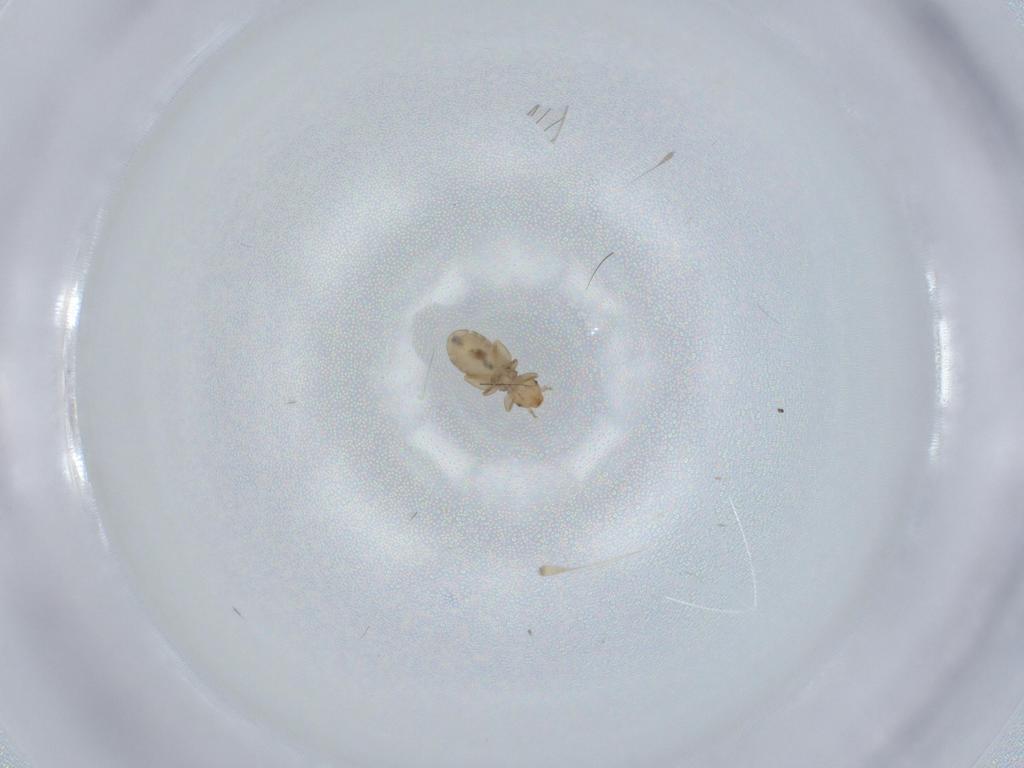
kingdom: Animalia
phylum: Arthropoda
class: Insecta
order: Psocodea
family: Liposcelididae
